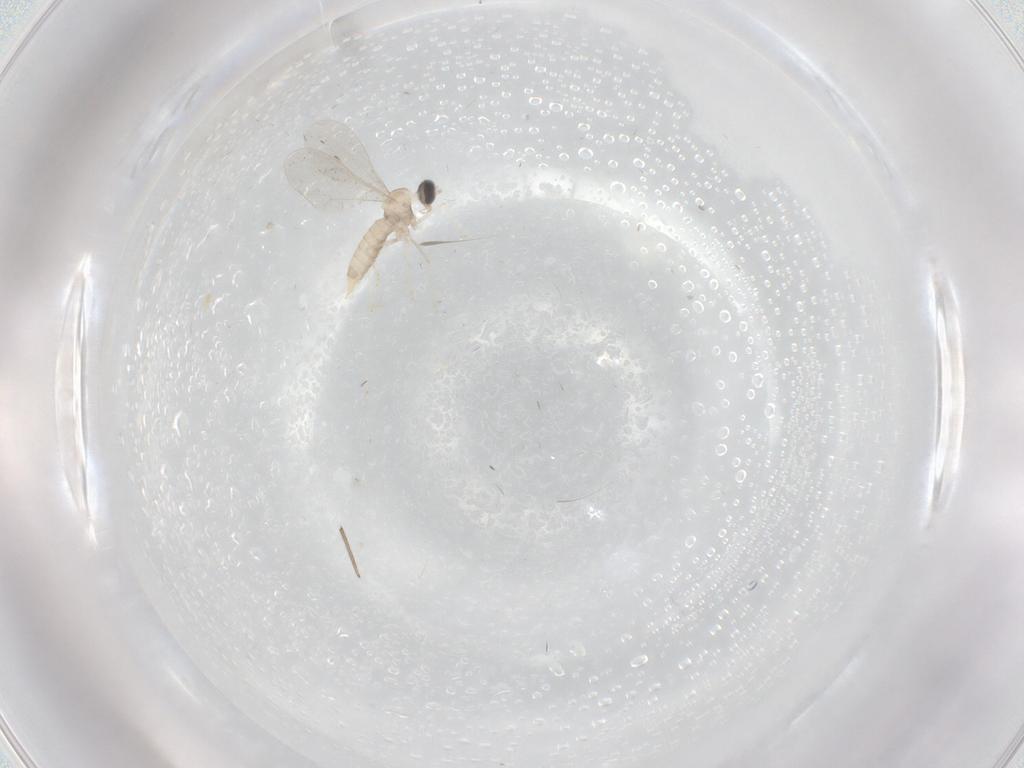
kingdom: Animalia
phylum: Arthropoda
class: Insecta
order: Diptera
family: Cecidomyiidae
